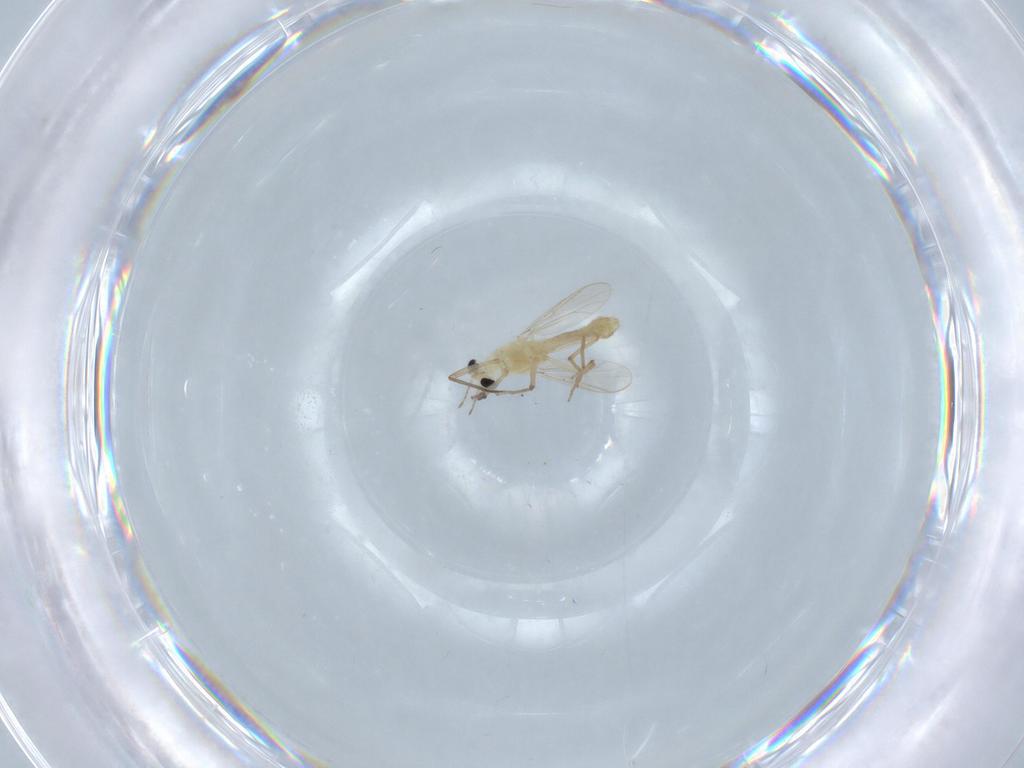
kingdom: Animalia
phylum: Arthropoda
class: Insecta
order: Diptera
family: Chironomidae
